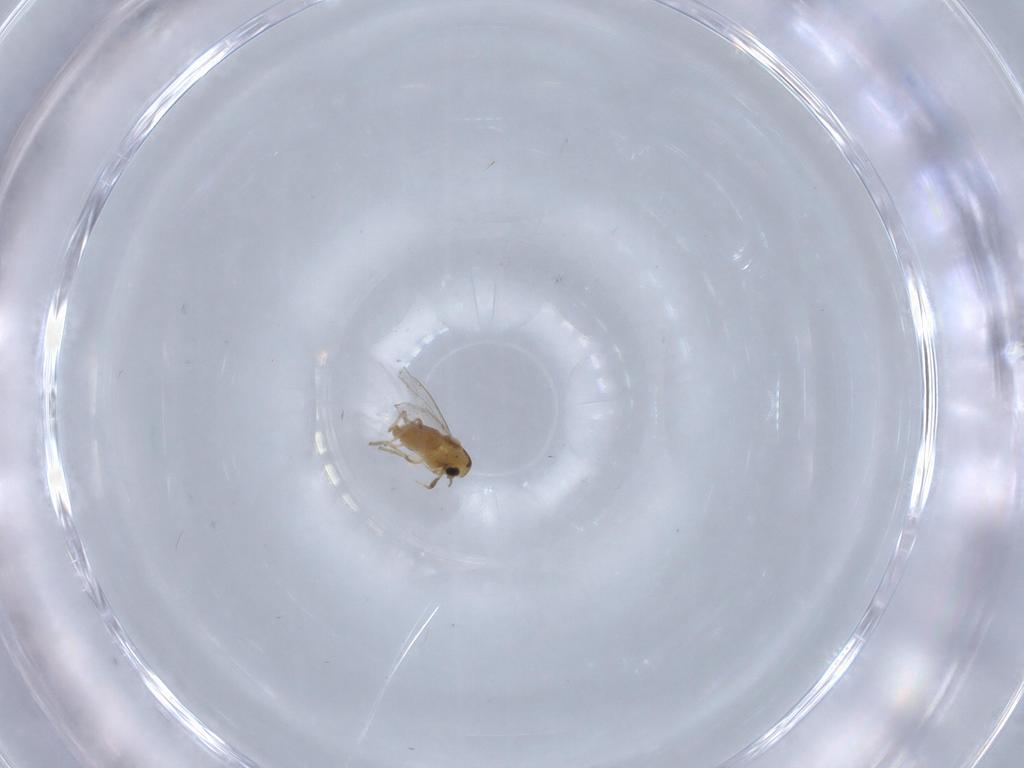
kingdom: Animalia
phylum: Arthropoda
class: Insecta
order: Diptera
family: Chironomidae
